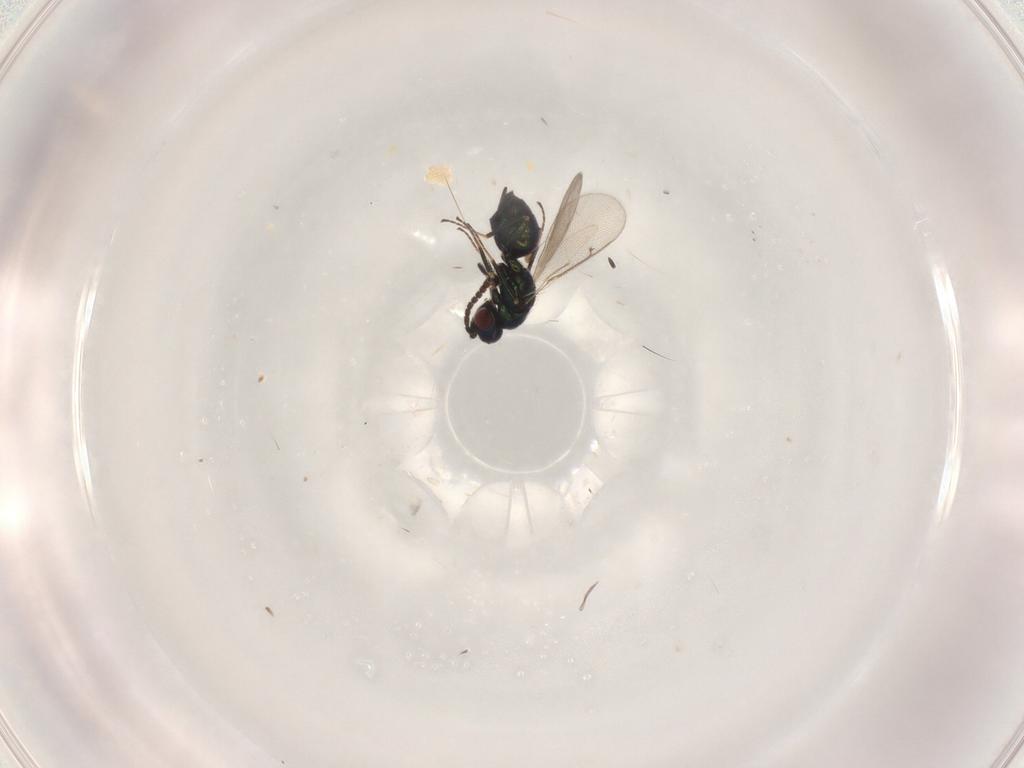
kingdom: Animalia
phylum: Arthropoda
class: Insecta
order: Hymenoptera
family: Tetracampidae
